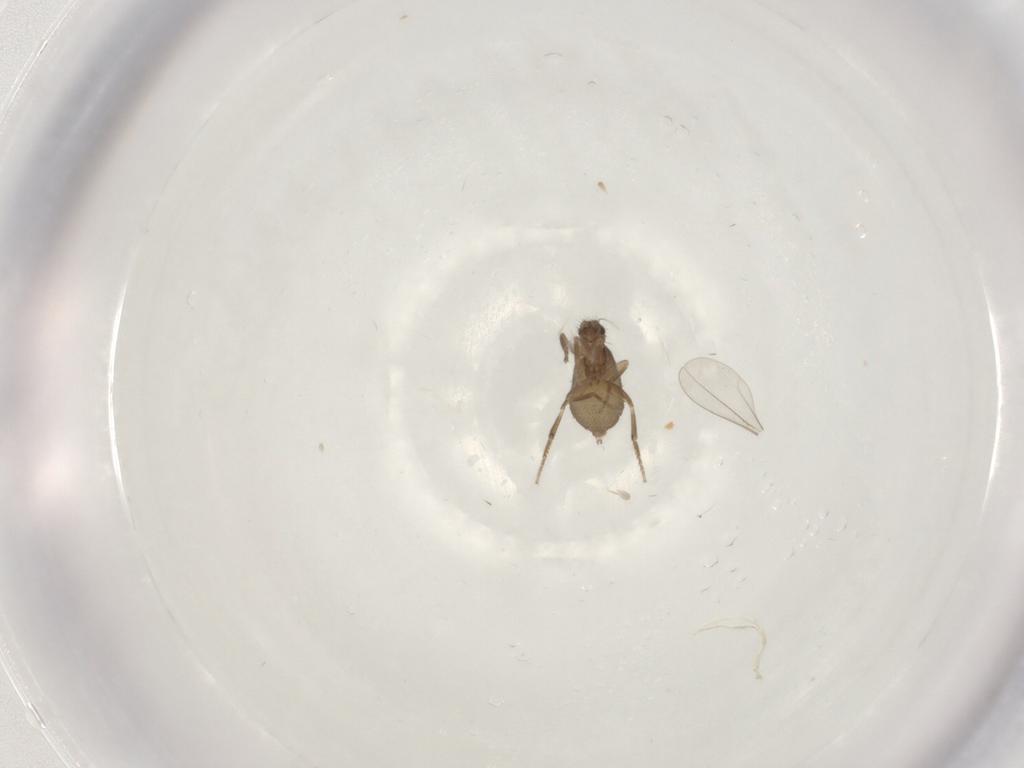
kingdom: Animalia
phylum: Arthropoda
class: Insecta
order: Diptera
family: Phoridae
